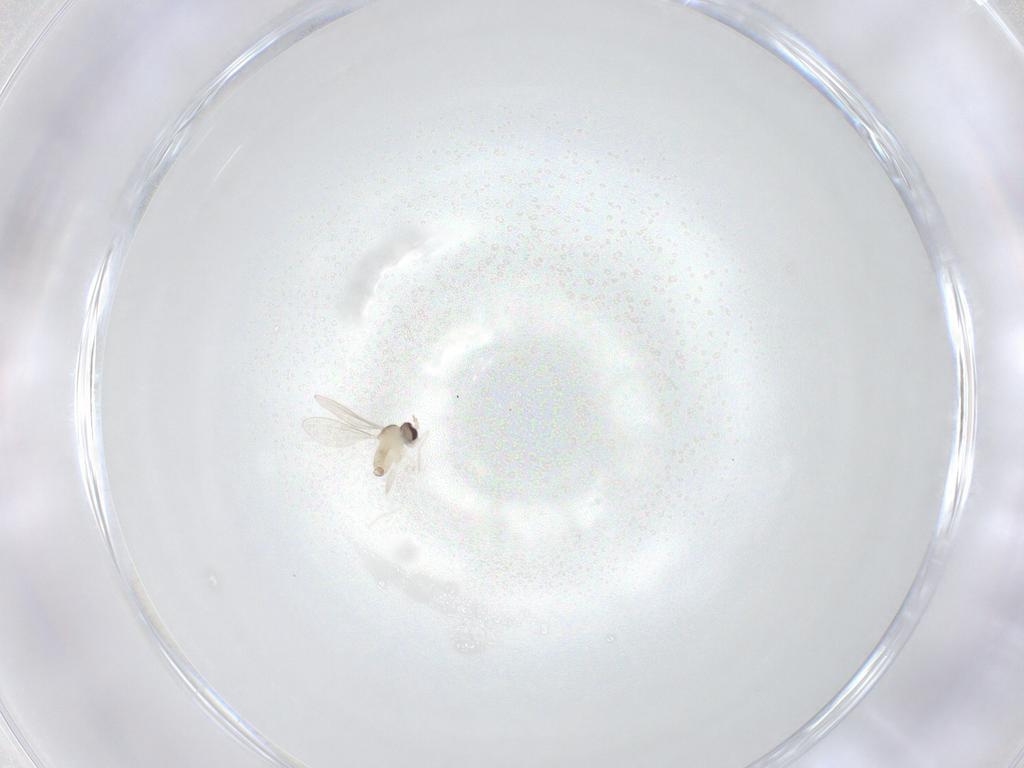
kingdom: Animalia
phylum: Arthropoda
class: Insecta
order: Diptera
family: Cecidomyiidae
